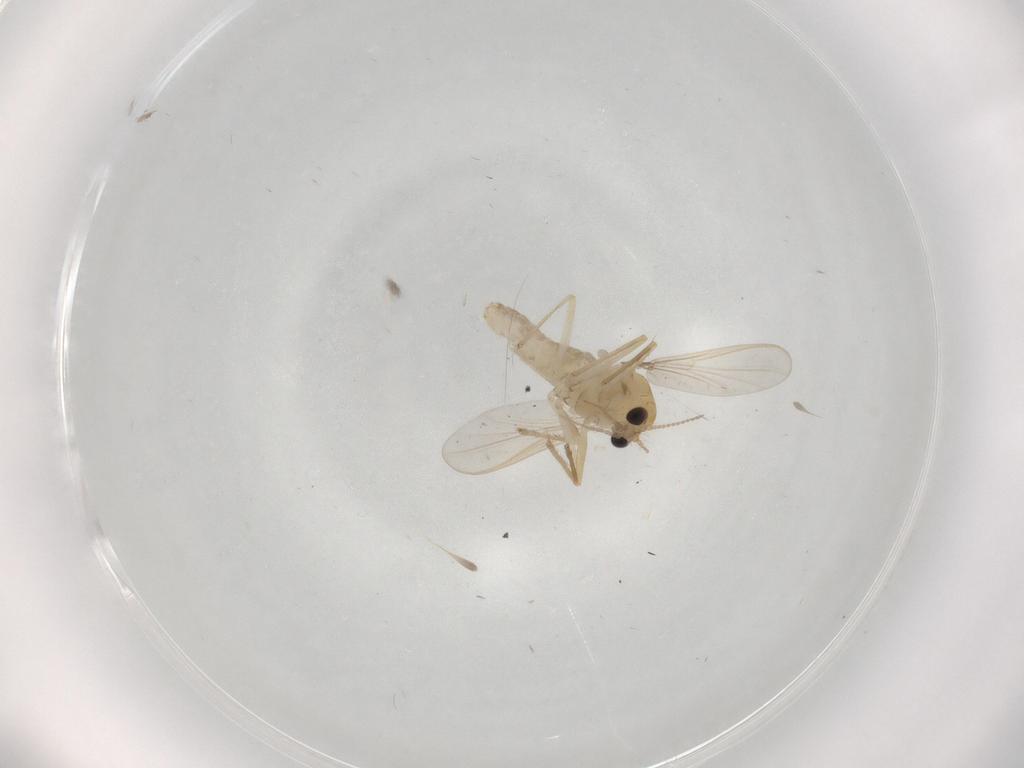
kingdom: Animalia
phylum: Arthropoda
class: Insecta
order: Diptera
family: Chironomidae
